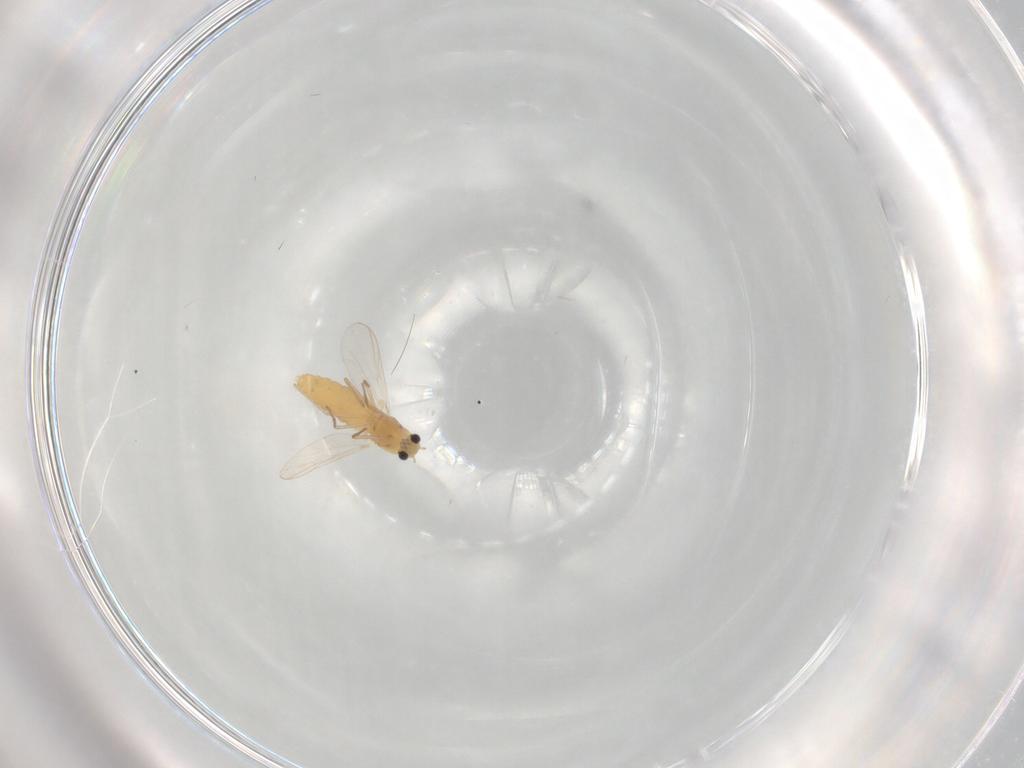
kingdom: Animalia
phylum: Arthropoda
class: Insecta
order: Diptera
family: Chironomidae
